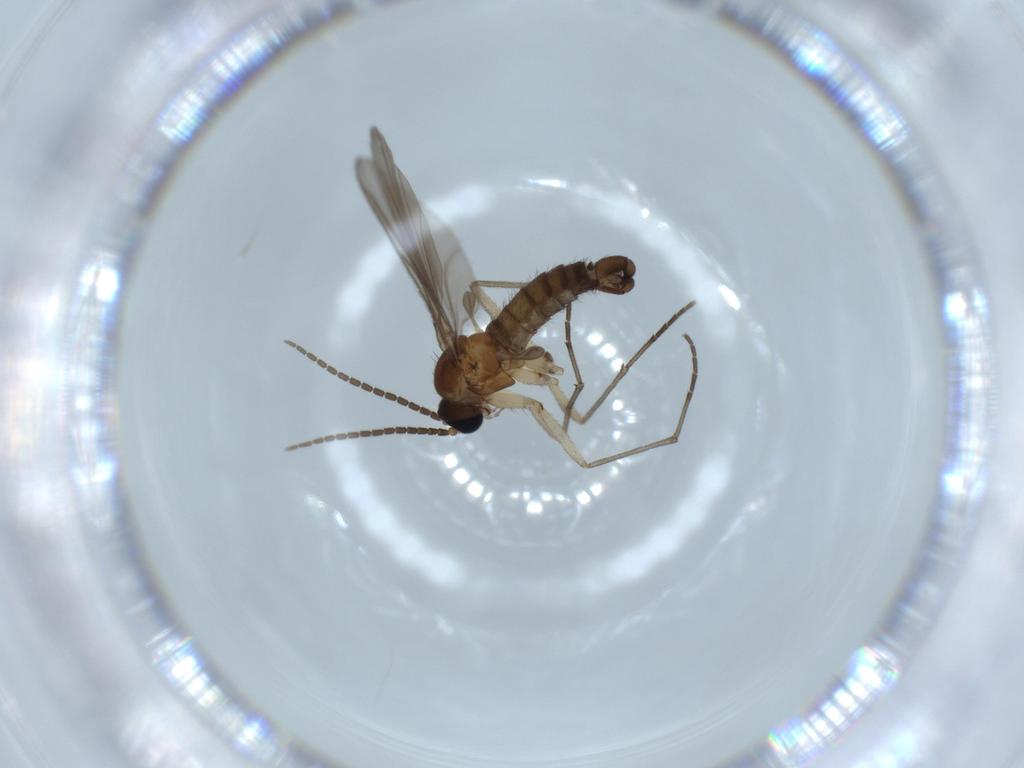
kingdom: Animalia
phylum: Arthropoda
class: Insecta
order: Diptera
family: Sciaridae
